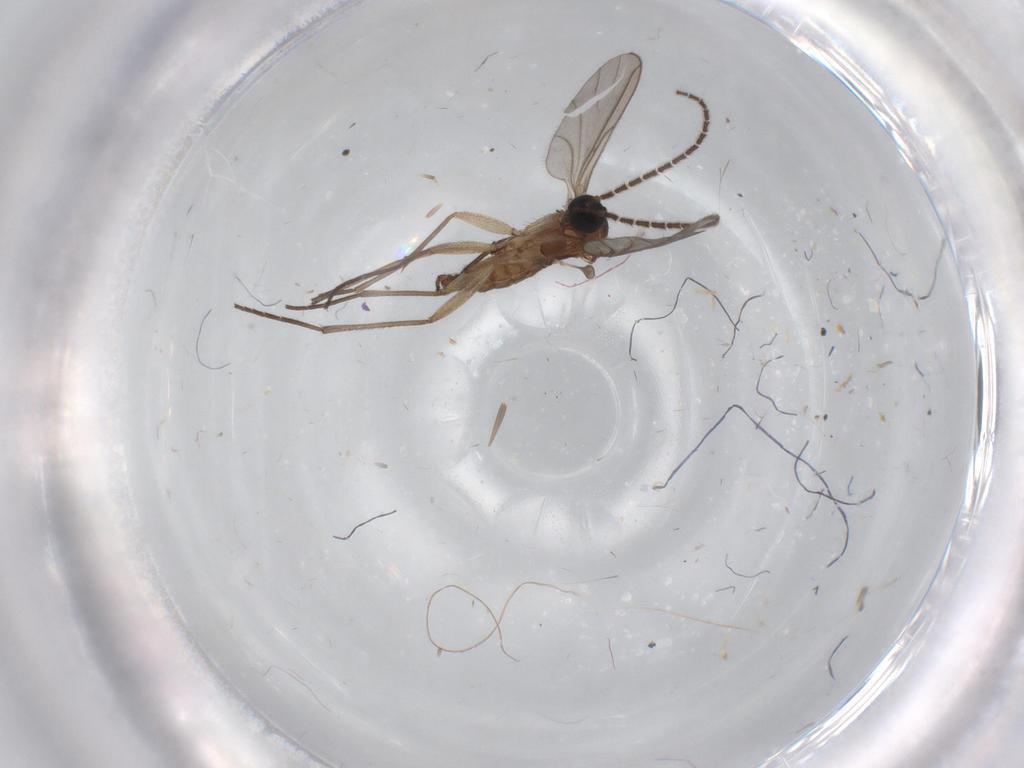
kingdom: Animalia
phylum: Arthropoda
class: Insecta
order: Diptera
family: Sciaridae
